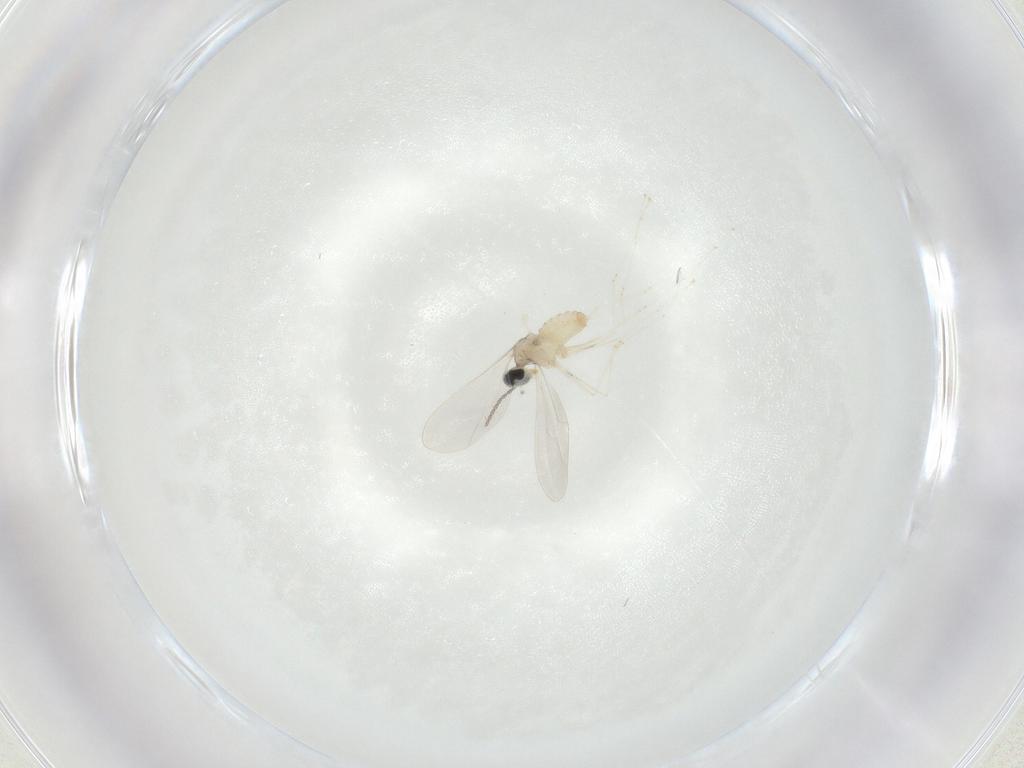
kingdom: Animalia
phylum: Arthropoda
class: Insecta
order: Diptera
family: Cecidomyiidae
